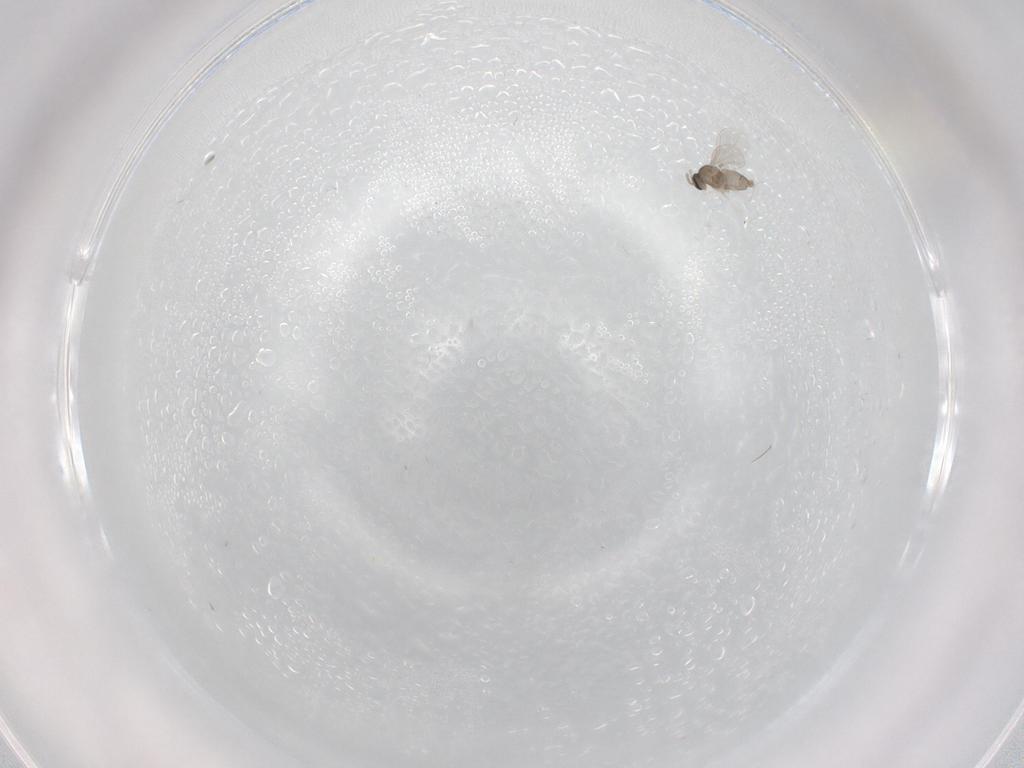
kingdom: Animalia
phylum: Arthropoda
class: Insecta
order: Diptera
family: Cecidomyiidae
